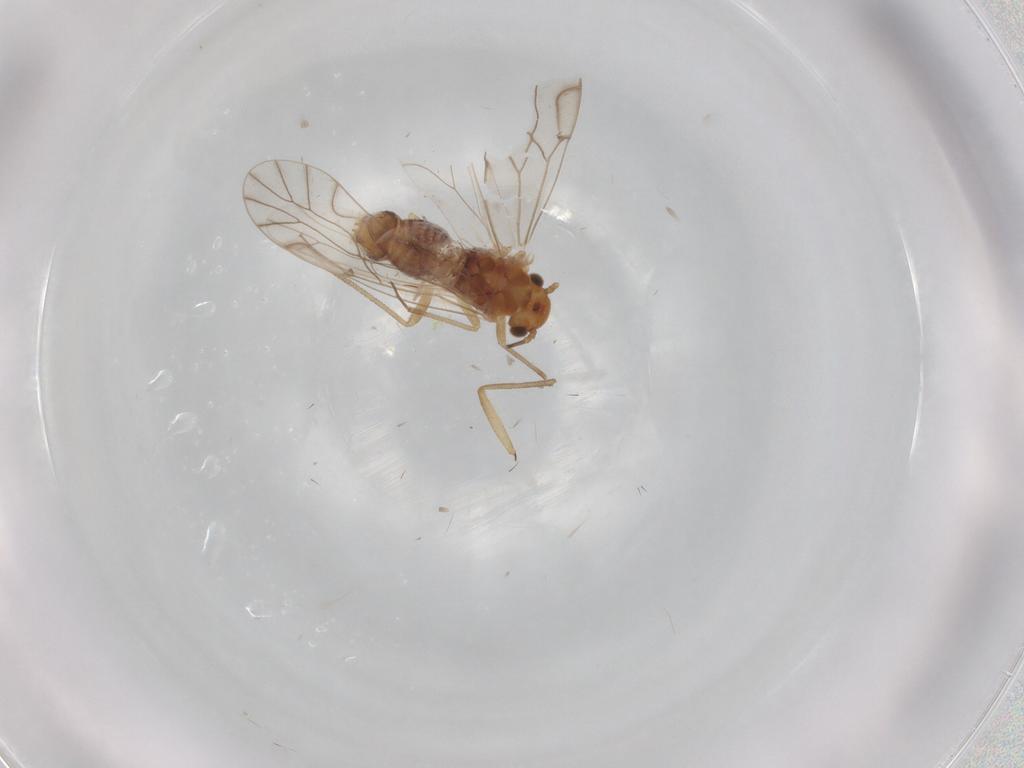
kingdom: Animalia
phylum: Arthropoda
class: Insecta
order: Psocodea
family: Lachesillidae
